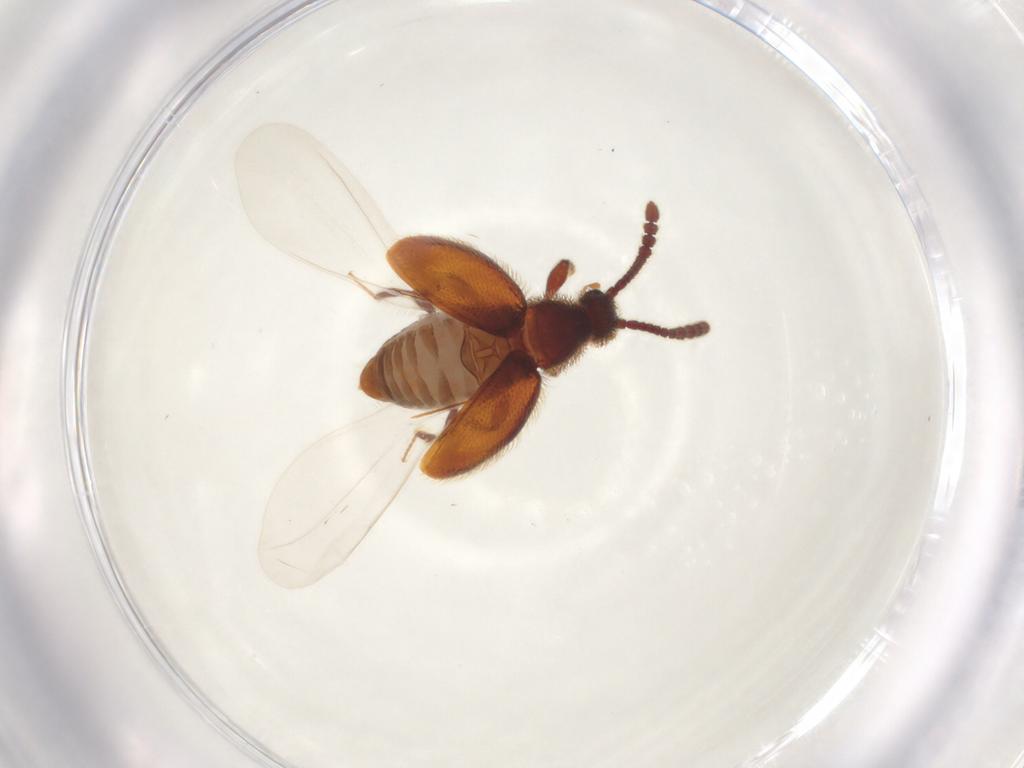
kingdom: Animalia
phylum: Arthropoda
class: Insecta
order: Coleoptera
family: Staphylinidae
